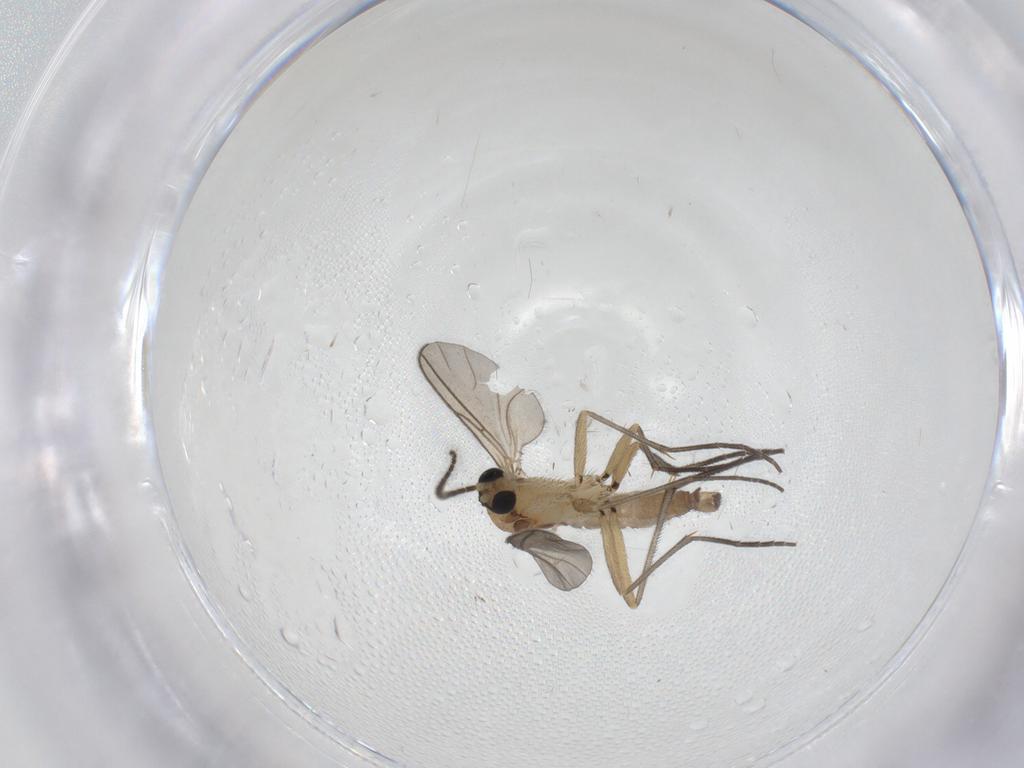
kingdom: Animalia
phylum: Arthropoda
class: Insecta
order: Diptera
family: Sciaridae
